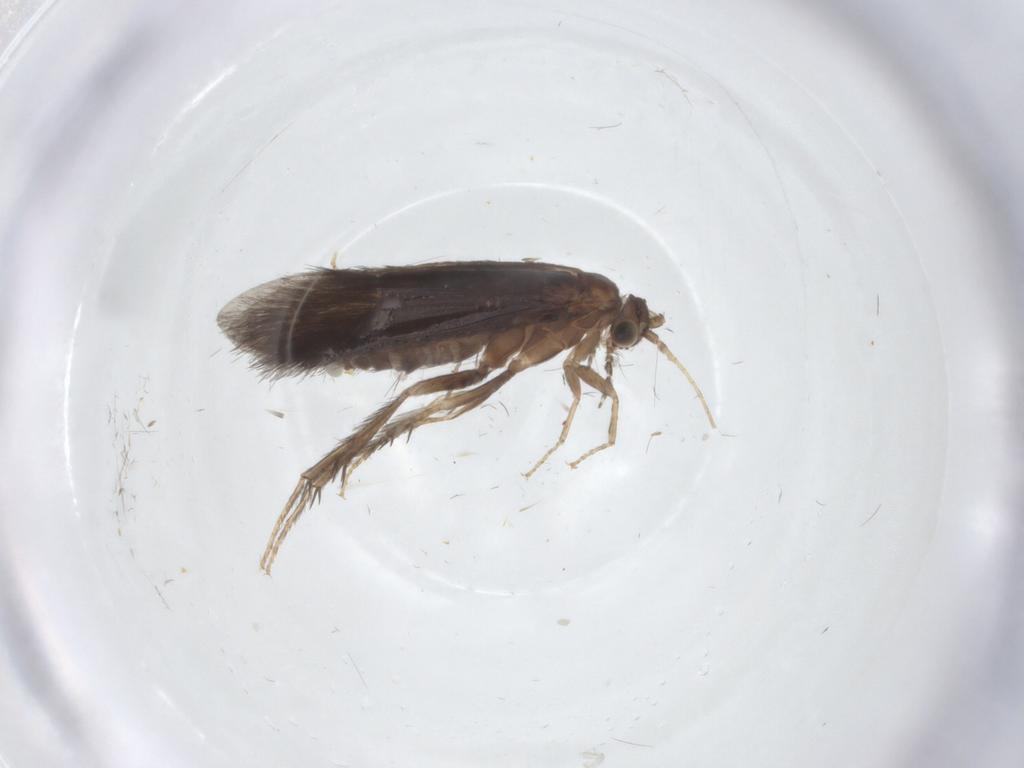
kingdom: Animalia
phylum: Arthropoda
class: Insecta
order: Trichoptera
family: Glossosomatidae
